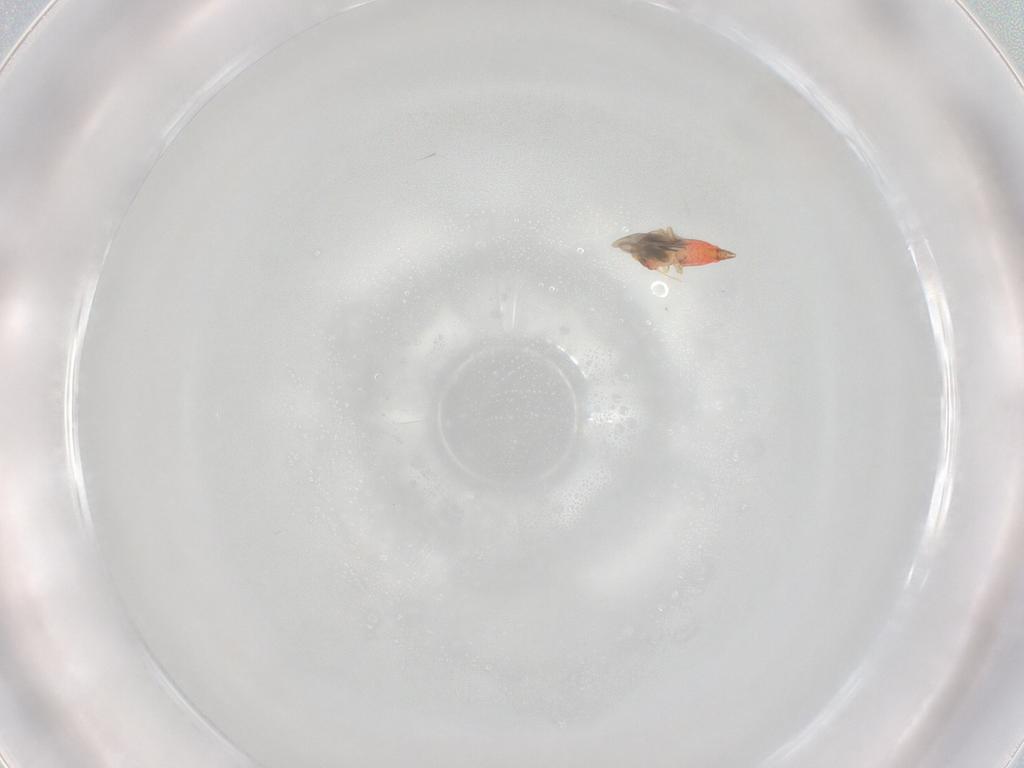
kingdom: Animalia
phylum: Arthropoda
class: Insecta
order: Hemiptera
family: Aleyrodidae
